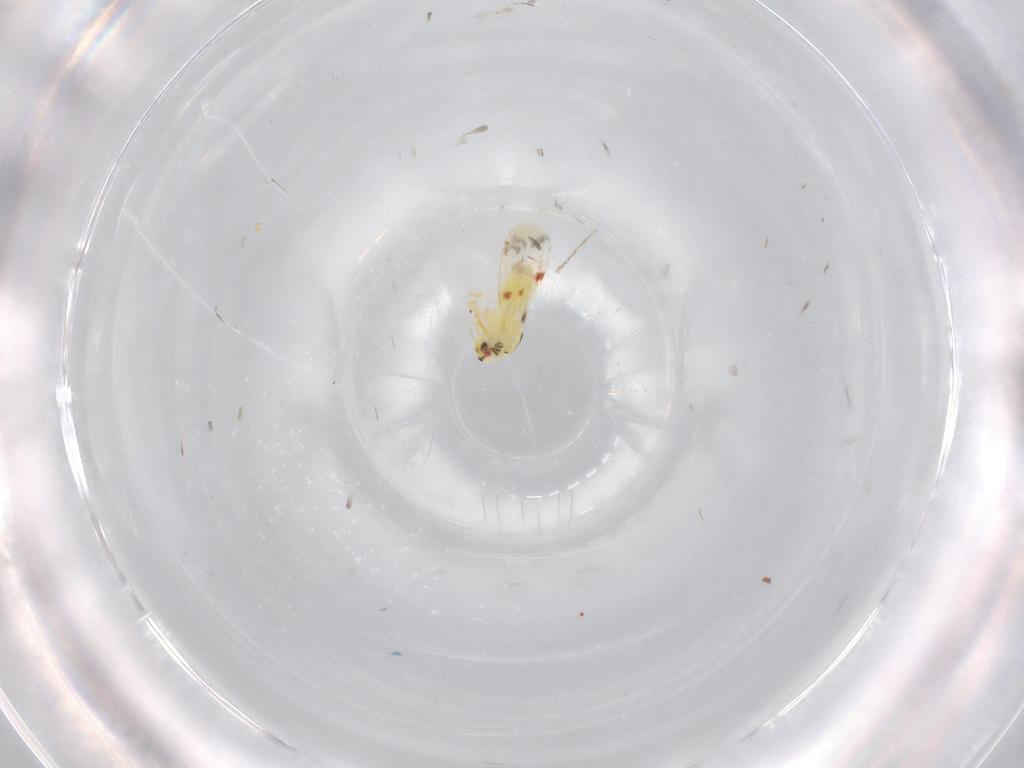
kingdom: Animalia
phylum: Arthropoda
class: Insecta
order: Hemiptera
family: Aleyrodidae
